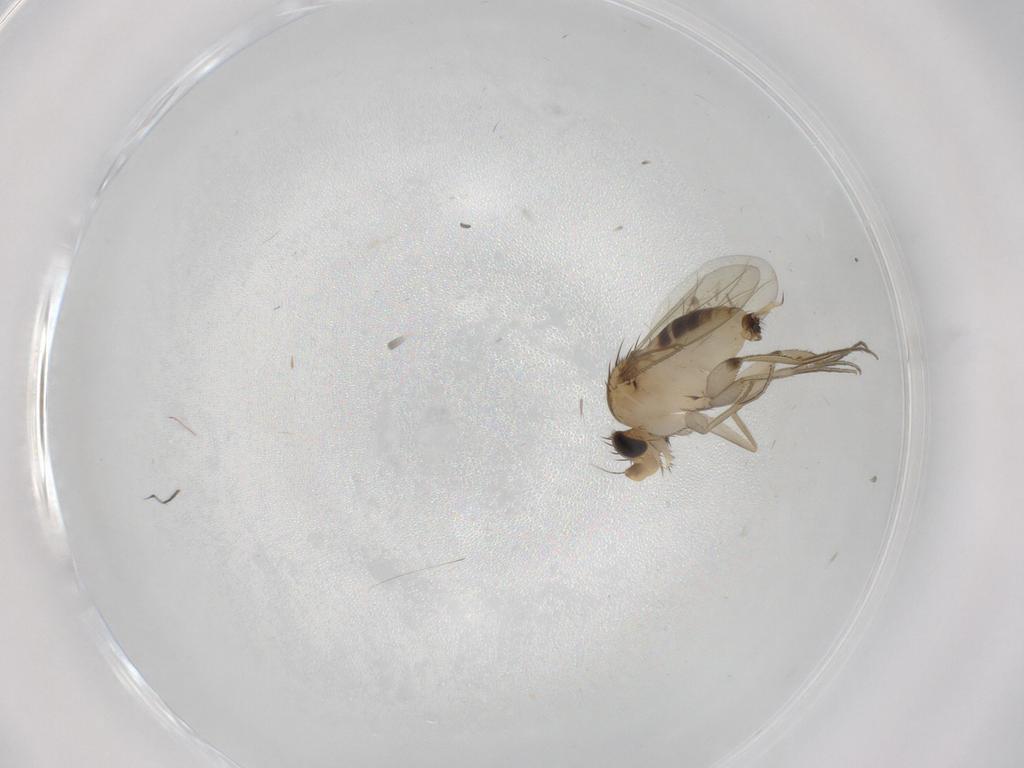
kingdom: Animalia
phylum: Arthropoda
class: Insecta
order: Diptera
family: Phoridae
